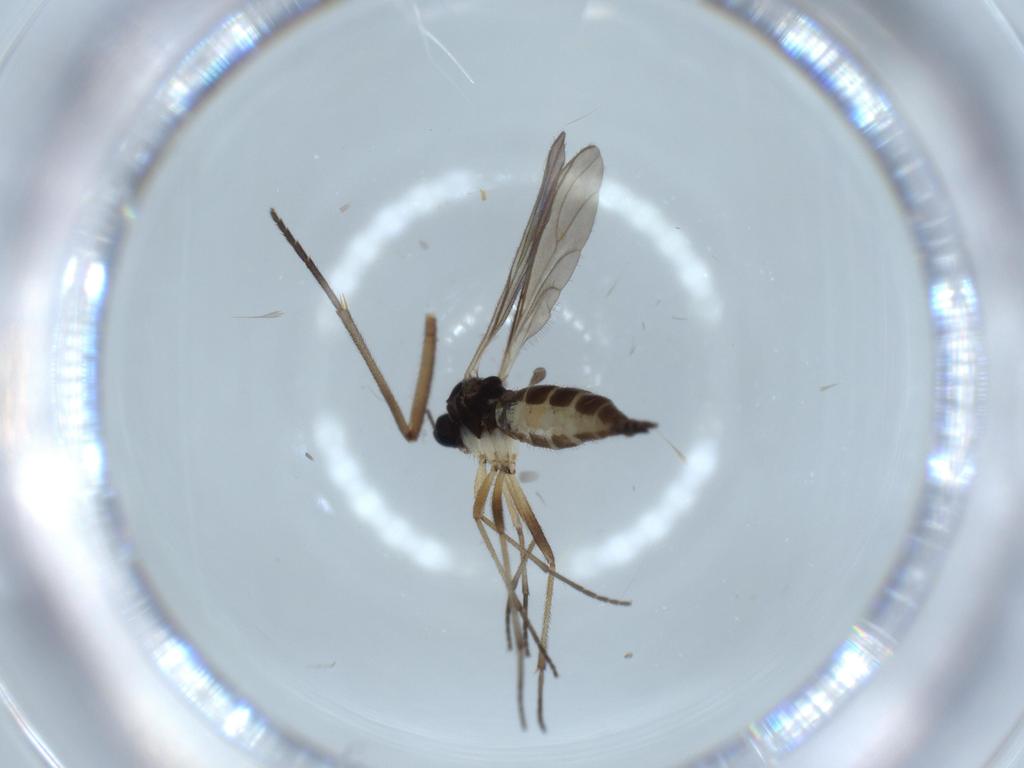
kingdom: Animalia
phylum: Arthropoda
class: Insecta
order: Diptera
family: Sciaridae
